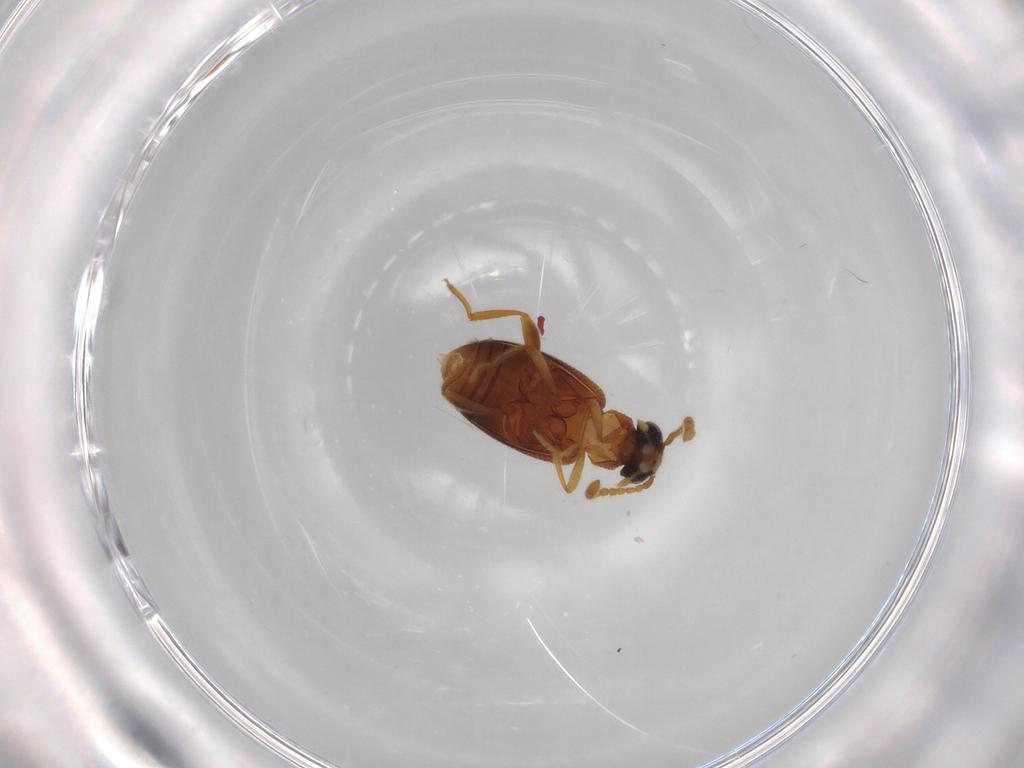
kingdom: Animalia
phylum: Arthropoda
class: Insecta
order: Coleoptera
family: Aderidae
